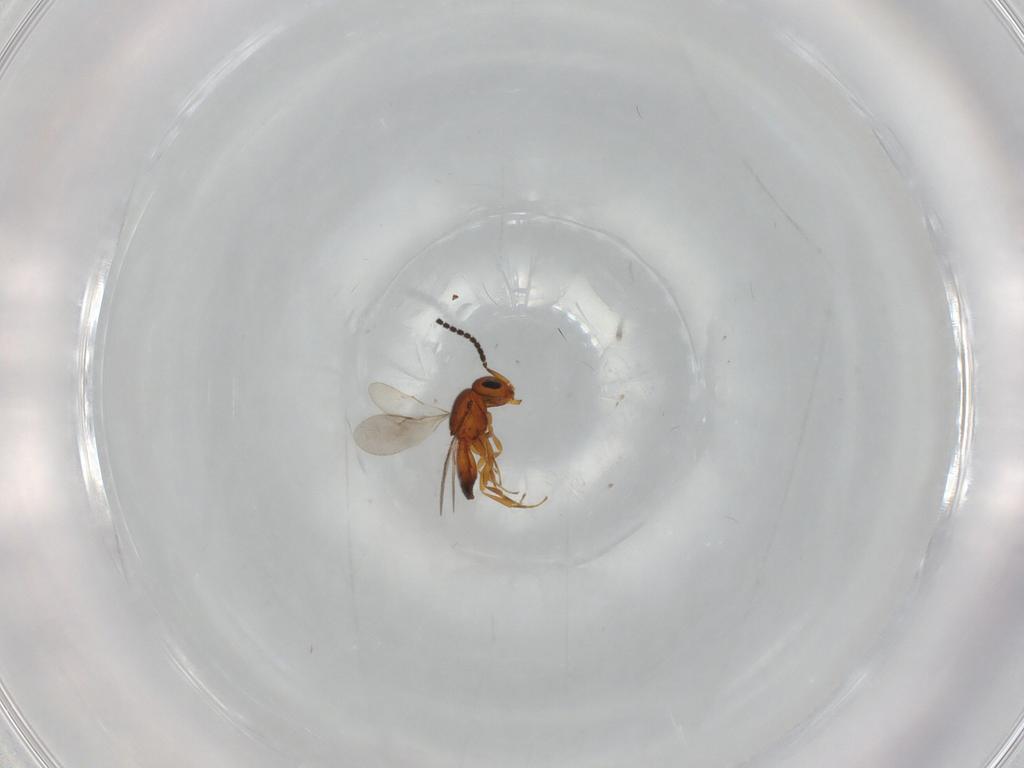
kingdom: Animalia
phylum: Arthropoda
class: Insecta
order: Hymenoptera
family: Scelionidae
